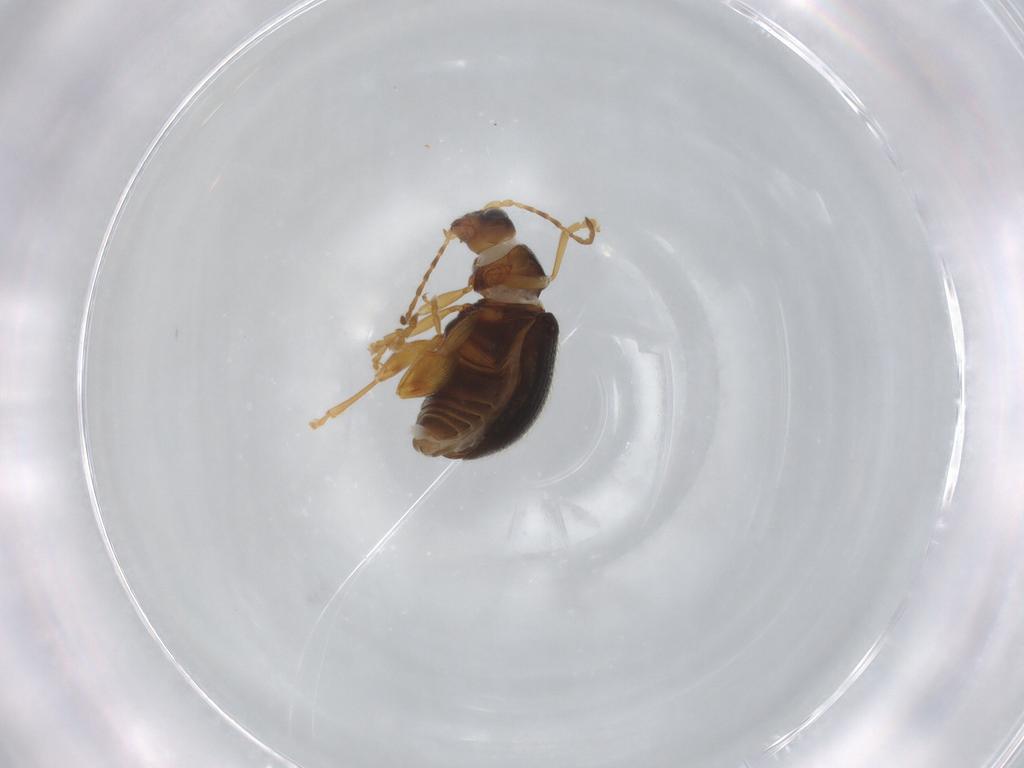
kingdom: Animalia
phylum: Arthropoda
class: Insecta
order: Coleoptera
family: Chrysomelidae
